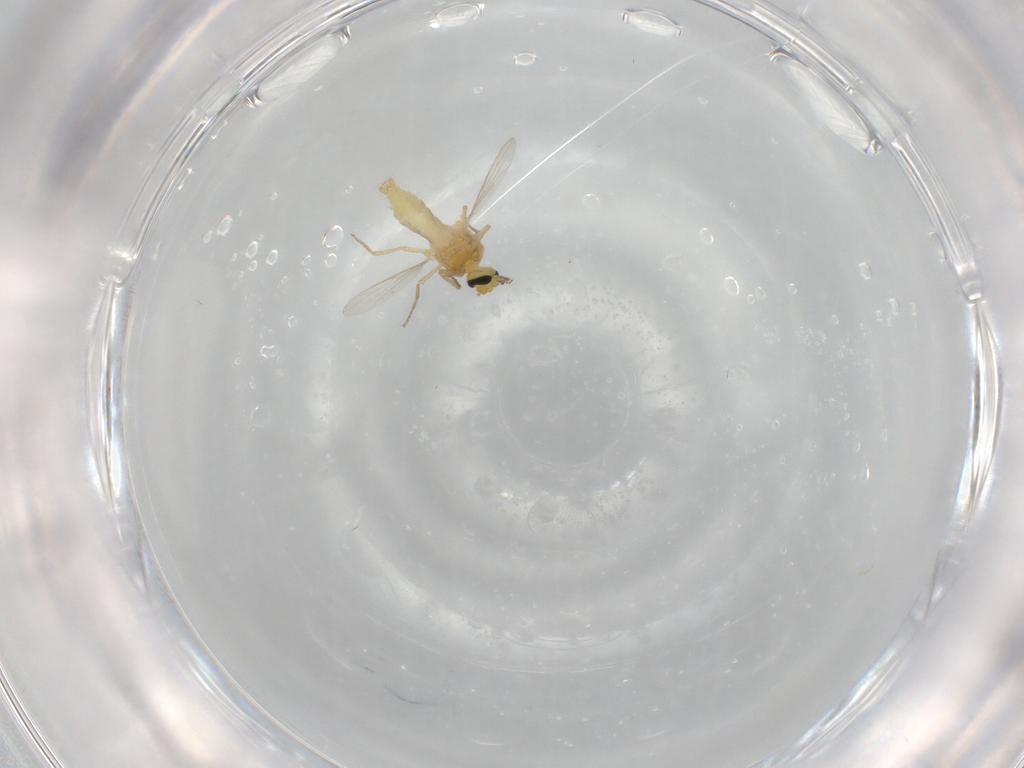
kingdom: Animalia
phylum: Arthropoda
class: Insecta
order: Diptera
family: Ceratopogonidae
